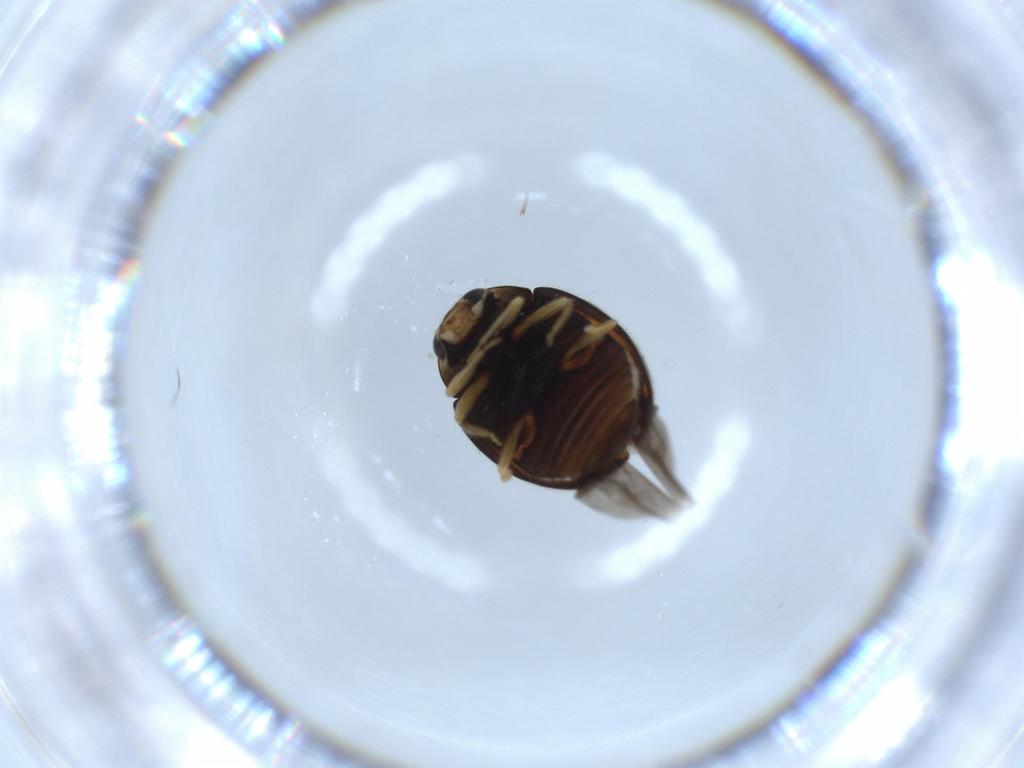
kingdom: Animalia
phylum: Arthropoda
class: Insecta
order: Coleoptera
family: Coccinellidae
